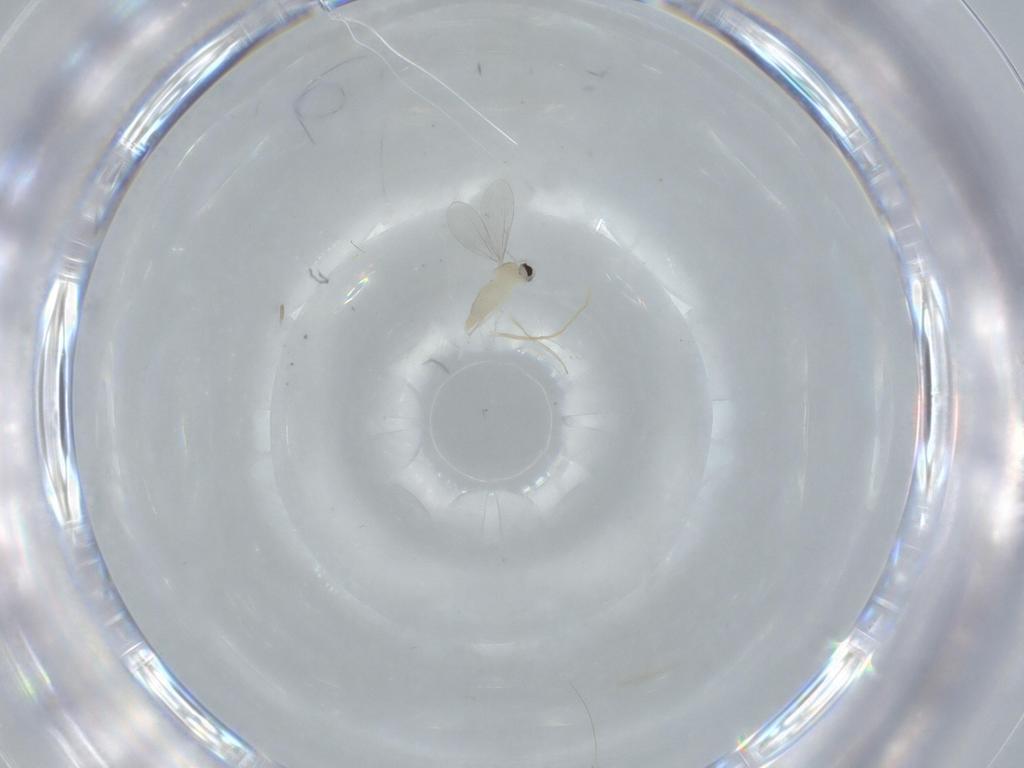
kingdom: Animalia
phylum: Arthropoda
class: Insecta
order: Diptera
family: Cecidomyiidae
